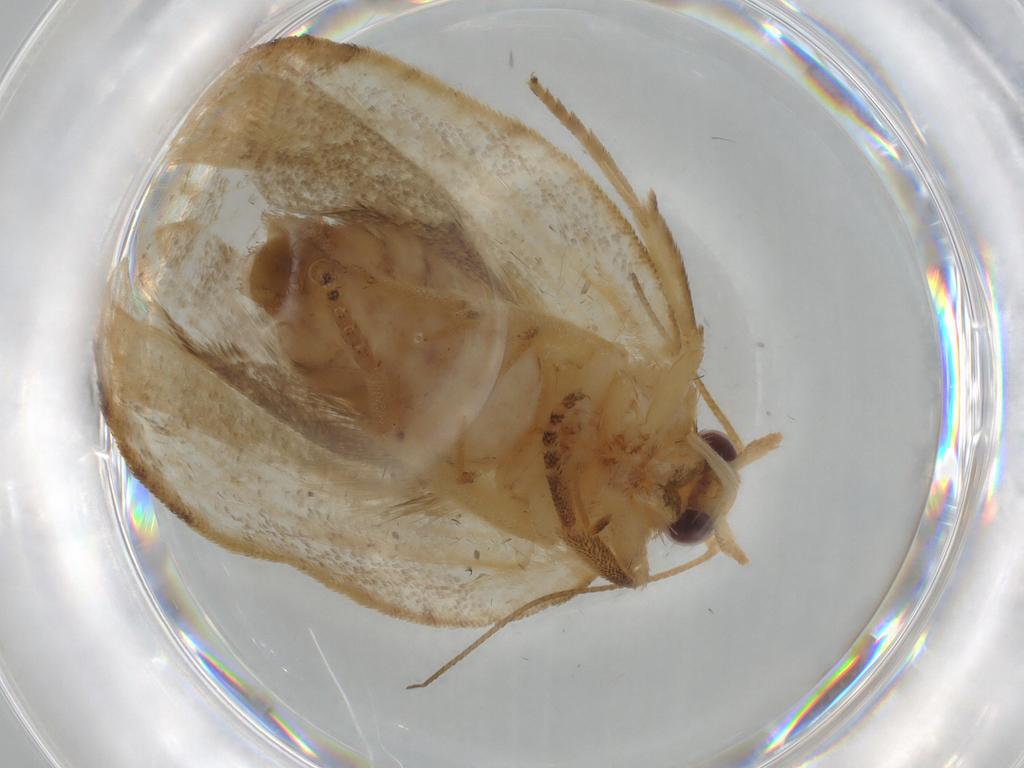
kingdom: Animalia
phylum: Arthropoda
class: Insecta
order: Lepidoptera
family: Tortricidae
